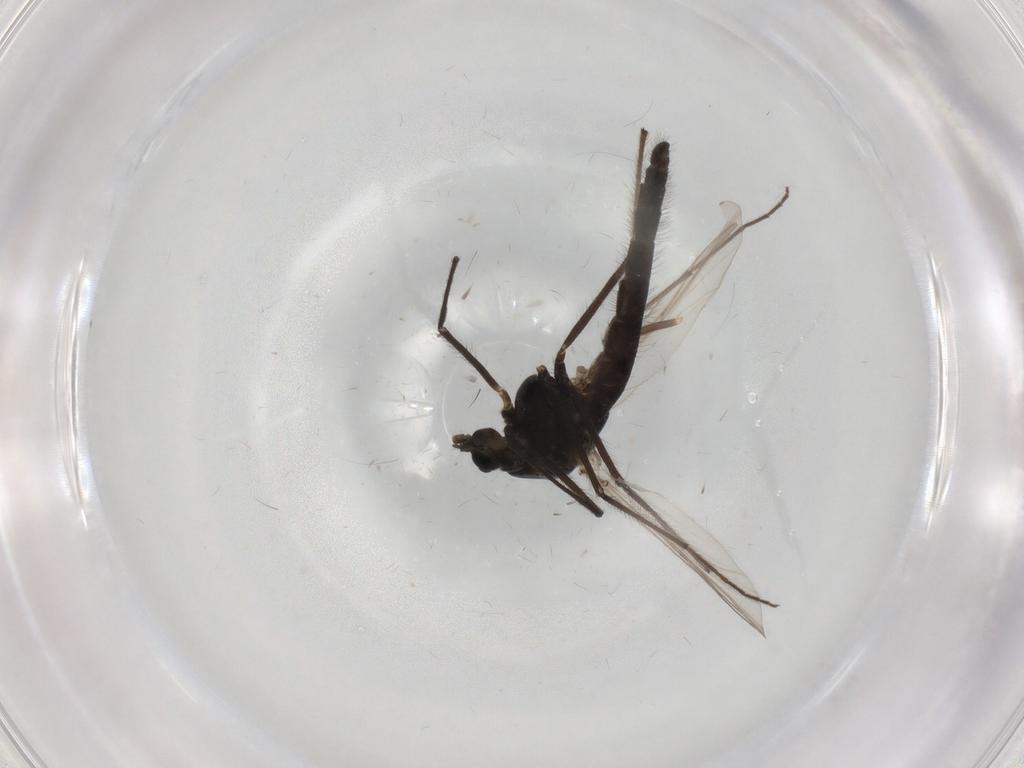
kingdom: Animalia
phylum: Arthropoda
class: Insecta
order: Diptera
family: Chironomidae
